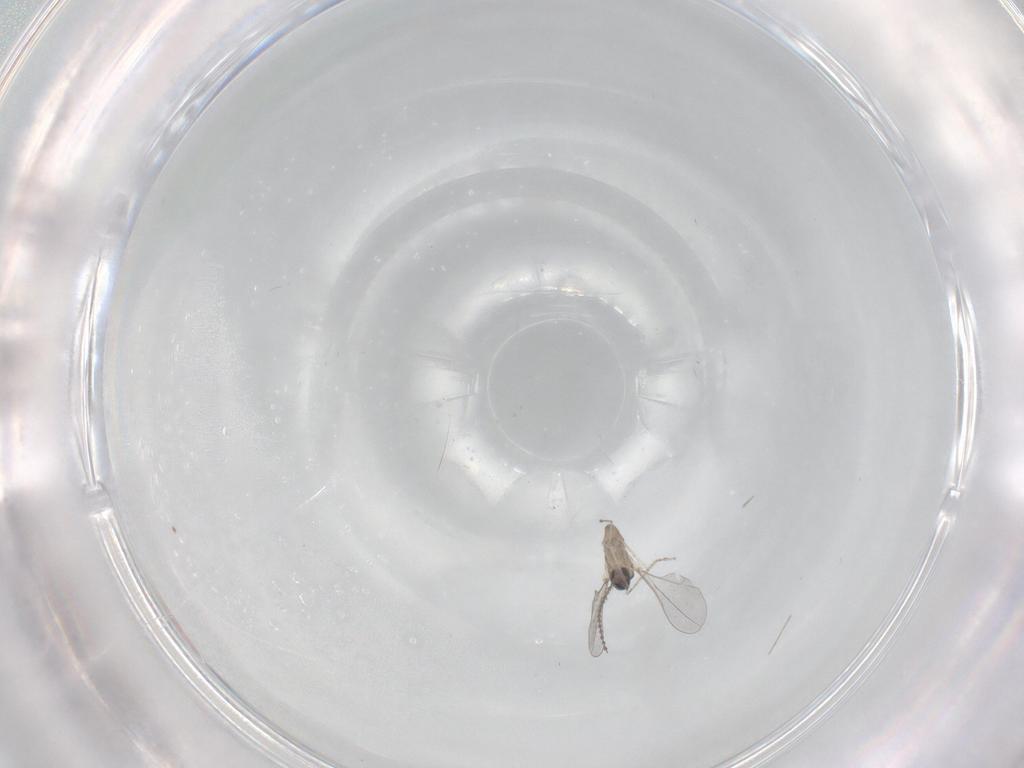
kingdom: Animalia
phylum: Arthropoda
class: Insecta
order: Diptera
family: Cecidomyiidae
